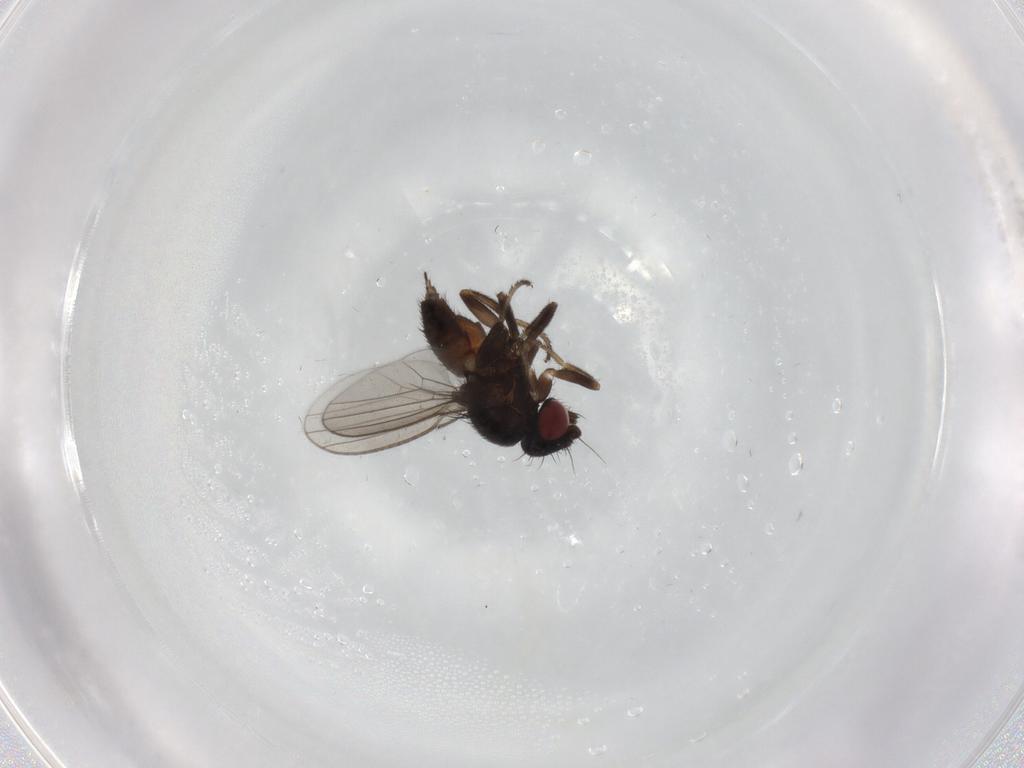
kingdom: Animalia
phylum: Arthropoda
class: Insecta
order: Diptera
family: Milichiidae
